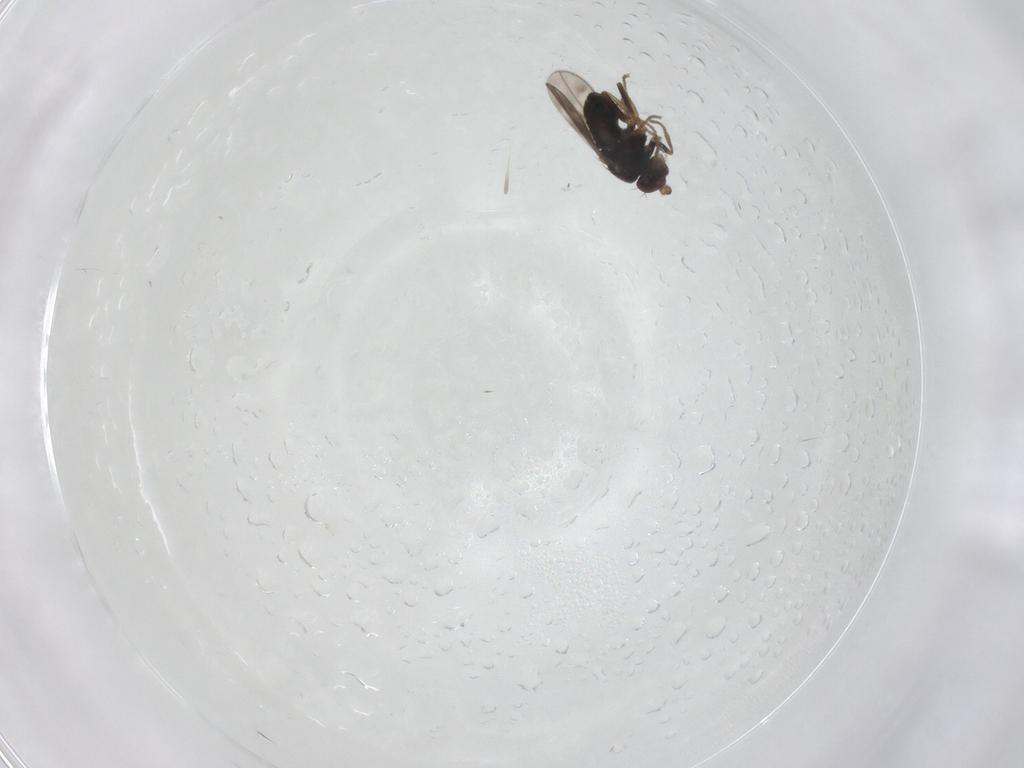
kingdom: Animalia
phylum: Arthropoda
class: Insecta
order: Diptera
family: Sphaeroceridae
